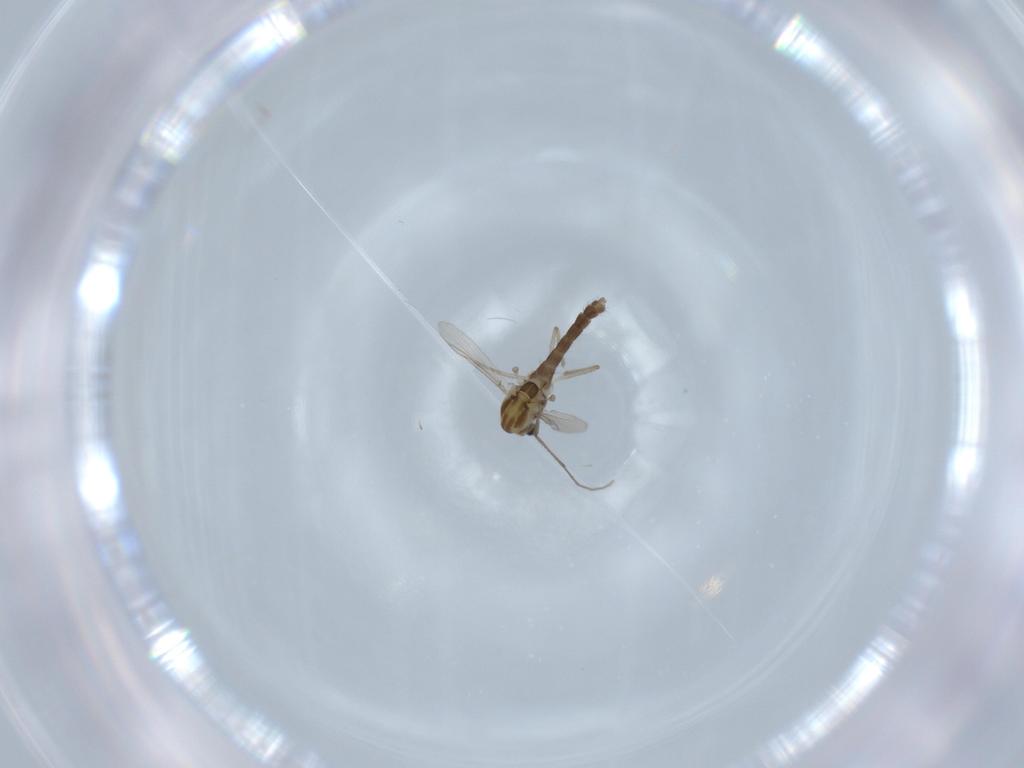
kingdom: Animalia
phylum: Arthropoda
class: Insecta
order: Diptera
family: Chironomidae
